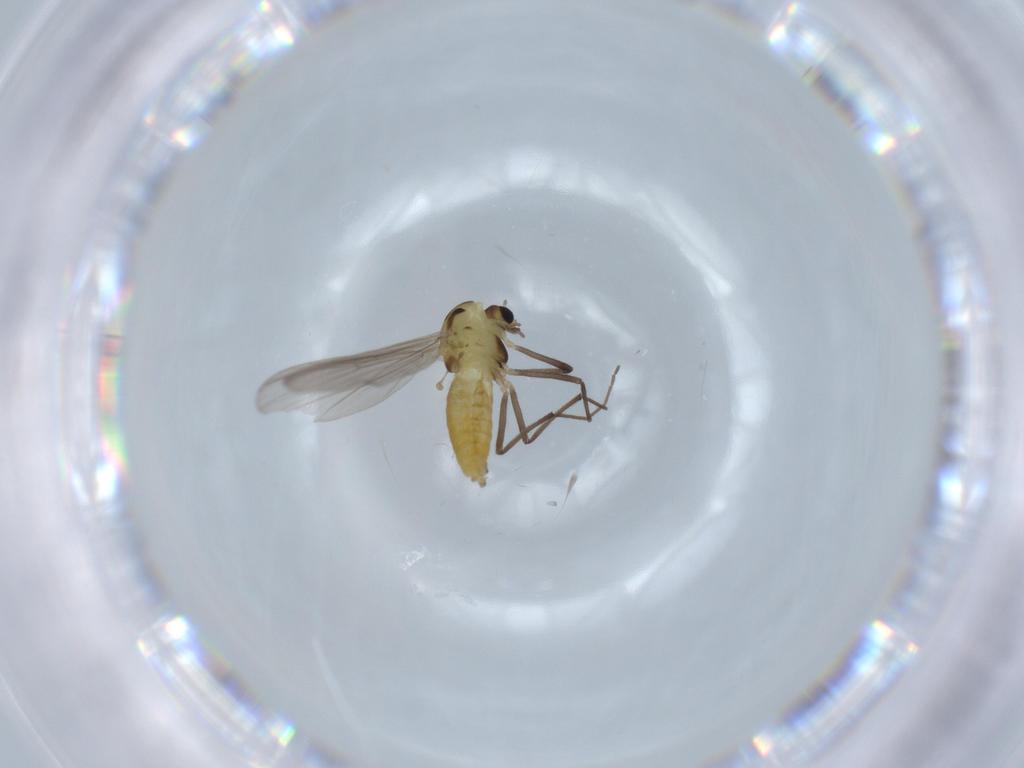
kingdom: Animalia
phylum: Arthropoda
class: Insecta
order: Diptera
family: Chironomidae
